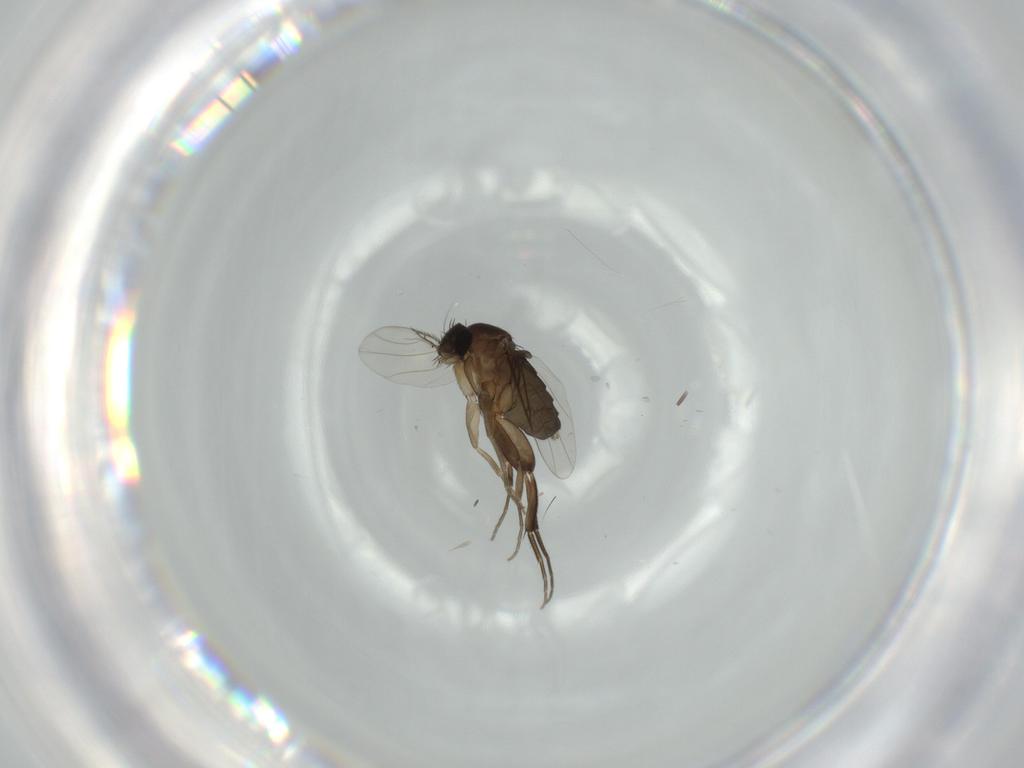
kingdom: Animalia
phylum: Arthropoda
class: Insecta
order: Diptera
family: Phoridae
